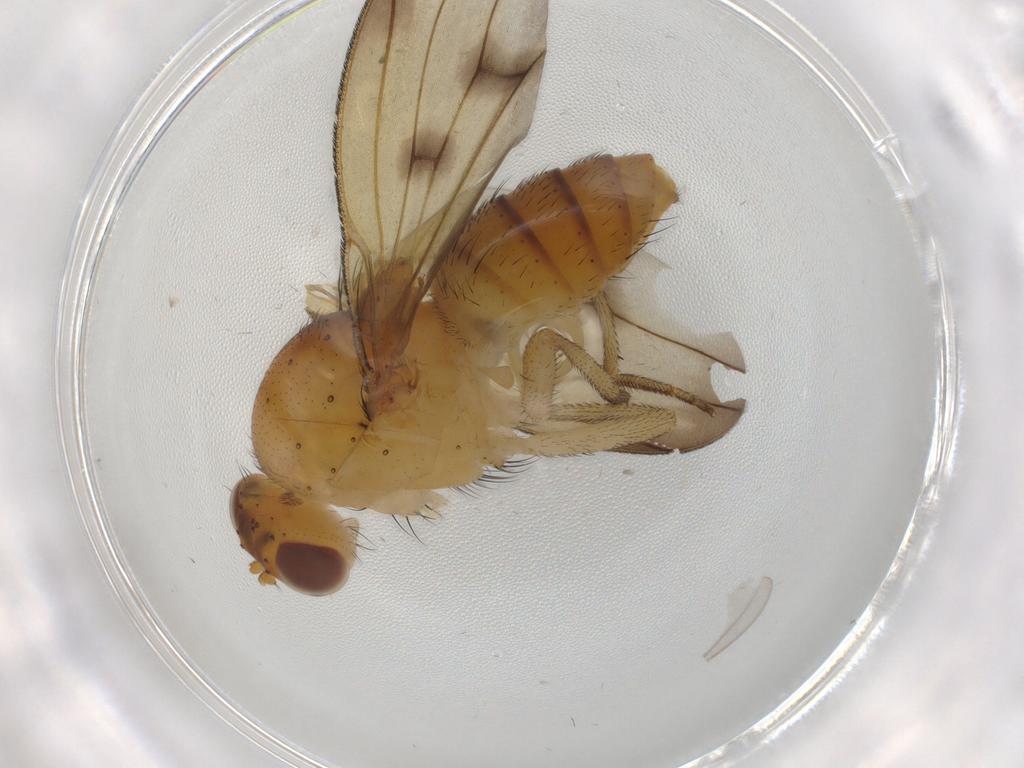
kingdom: Animalia
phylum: Arthropoda
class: Insecta
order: Diptera
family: Lauxaniidae
